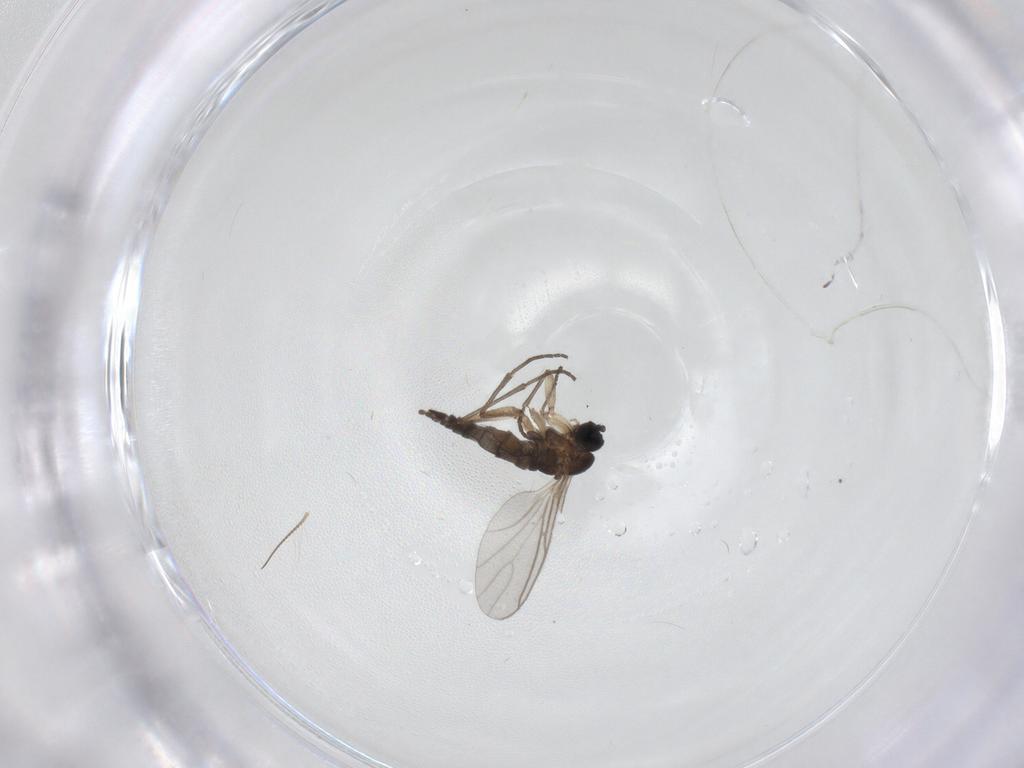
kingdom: Animalia
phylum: Arthropoda
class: Insecta
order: Diptera
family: Sciaridae
